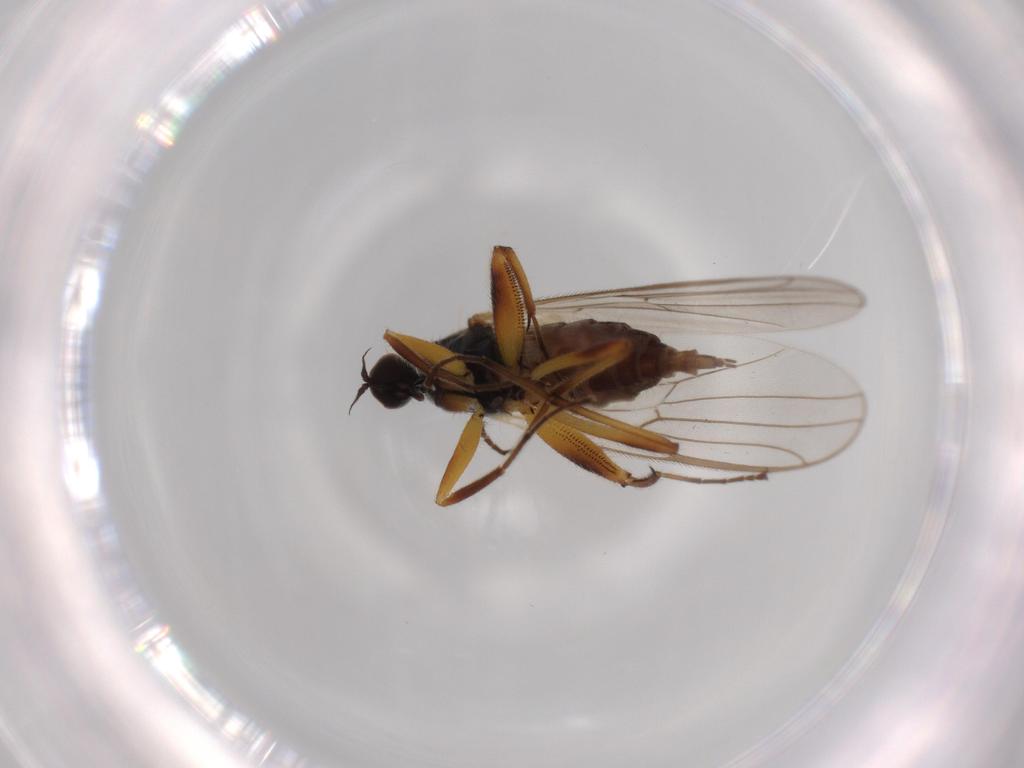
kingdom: Animalia
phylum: Arthropoda
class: Insecta
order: Diptera
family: Hybotidae
